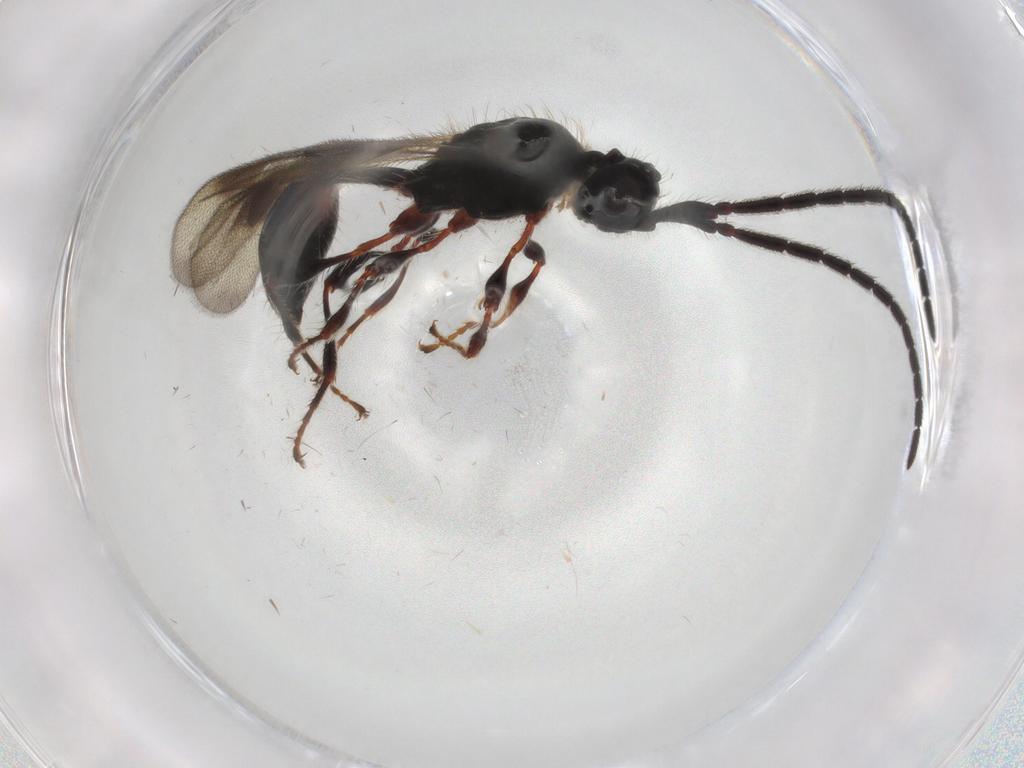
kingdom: Animalia
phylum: Arthropoda
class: Insecta
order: Hymenoptera
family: Diapriidae
